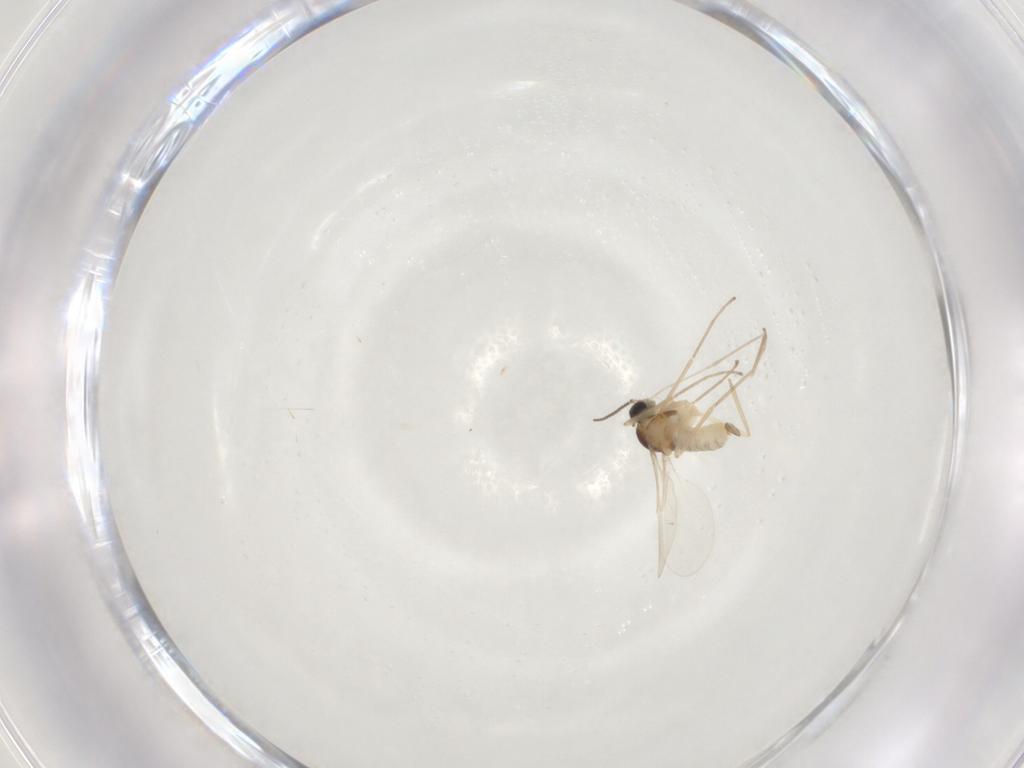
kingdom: Animalia
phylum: Arthropoda
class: Insecta
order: Diptera
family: Cecidomyiidae
